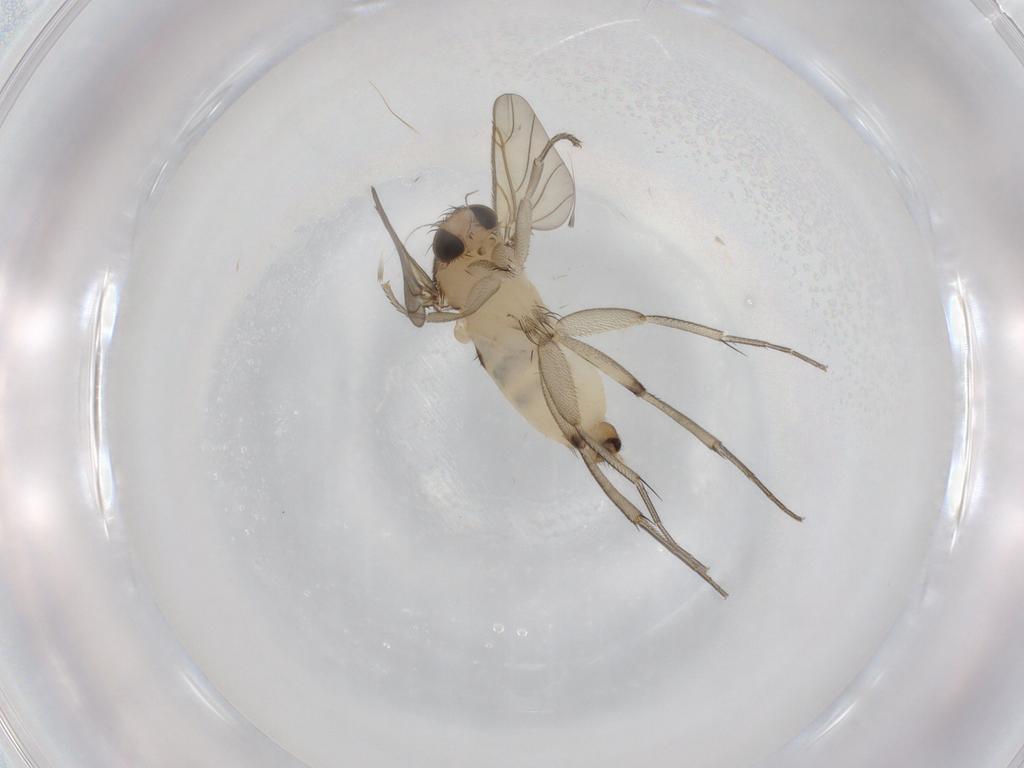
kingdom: Animalia
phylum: Arthropoda
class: Insecta
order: Diptera
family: Phoridae
